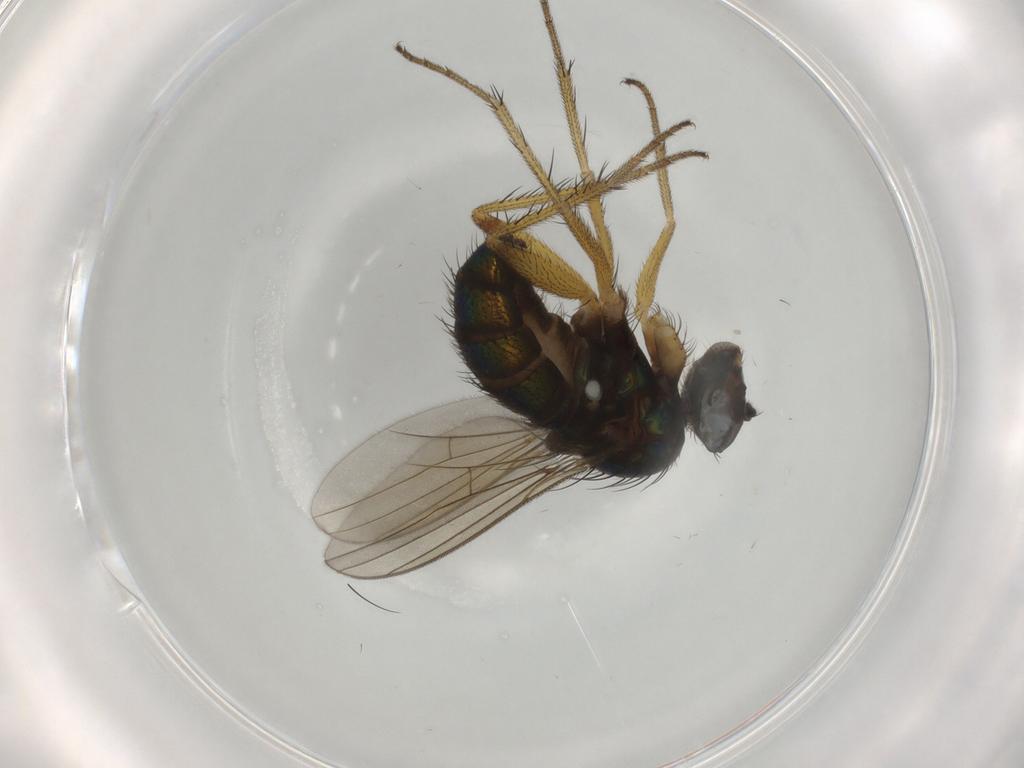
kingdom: Animalia
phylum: Arthropoda
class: Insecta
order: Diptera
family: Dolichopodidae
